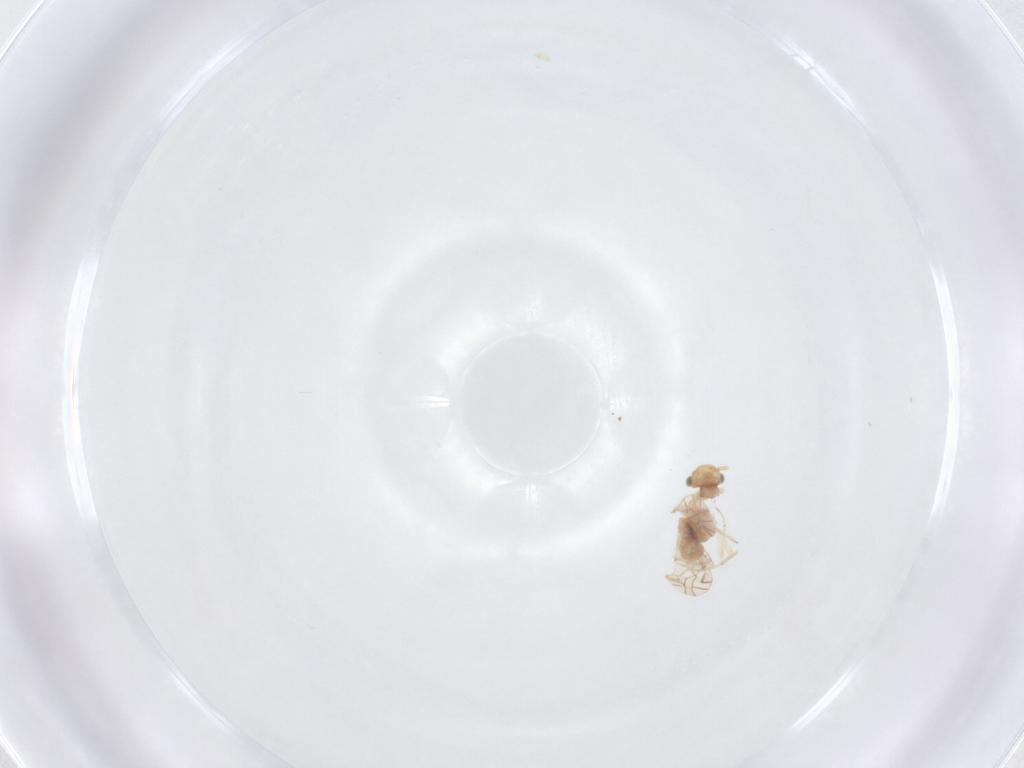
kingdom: Animalia
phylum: Arthropoda
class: Insecta
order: Psocodea
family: Lachesillidae
